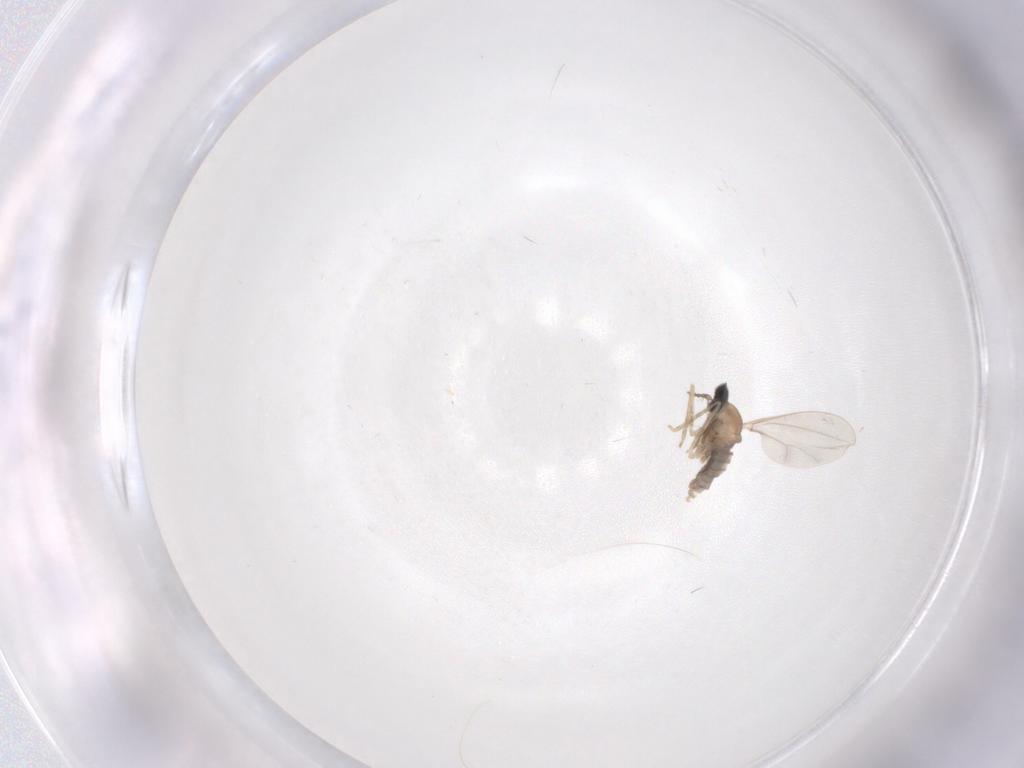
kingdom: Animalia
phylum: Arthropoda
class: Insecta
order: Diptera
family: Cecidomyiidae
